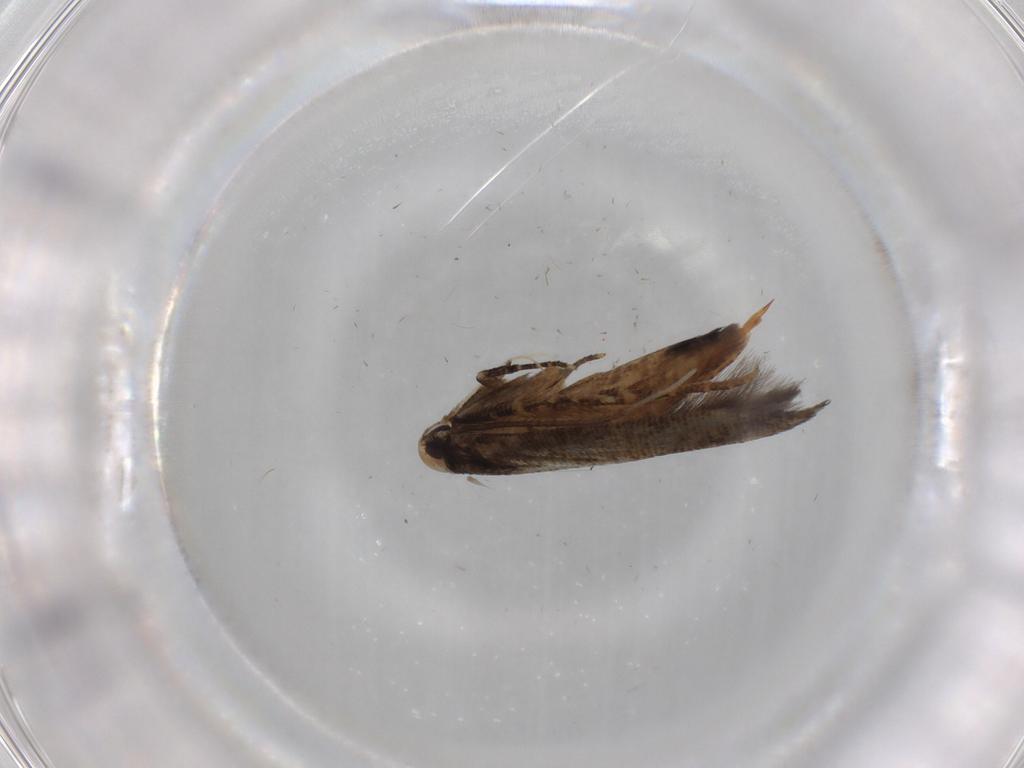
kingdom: Animalia
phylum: Arthropoda
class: Insecta
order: Lepidoptera
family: Cosmopterigidae
